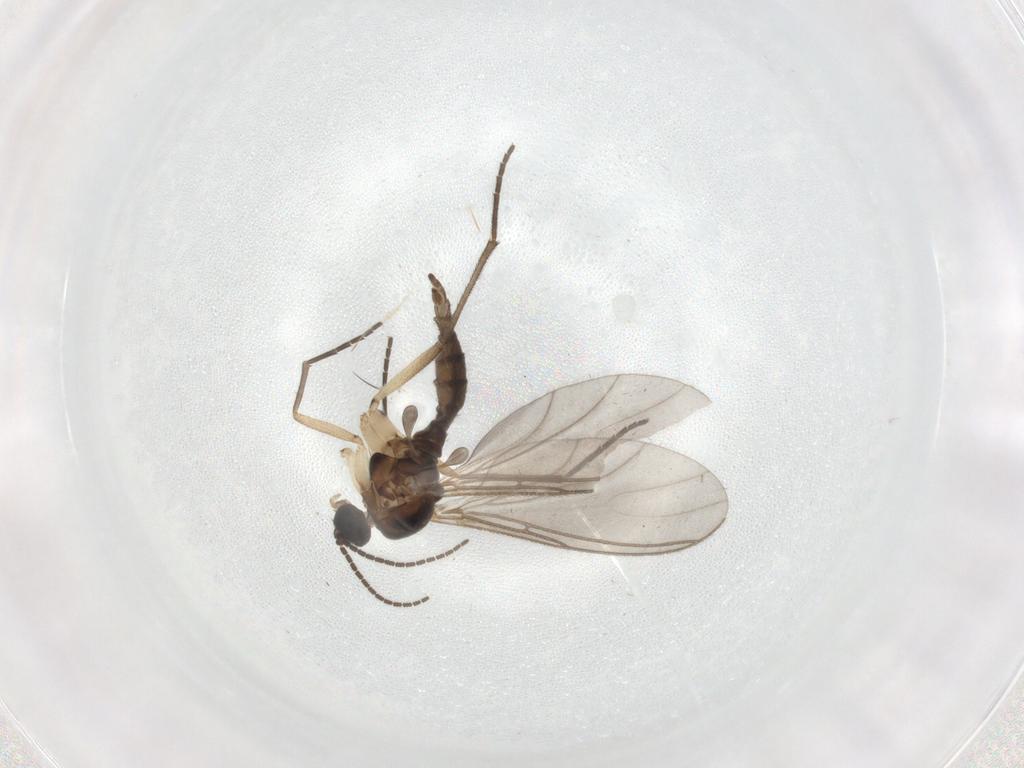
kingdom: Animalia
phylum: Arthropoda
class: Insecta
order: Diptera
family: Sciaridae
